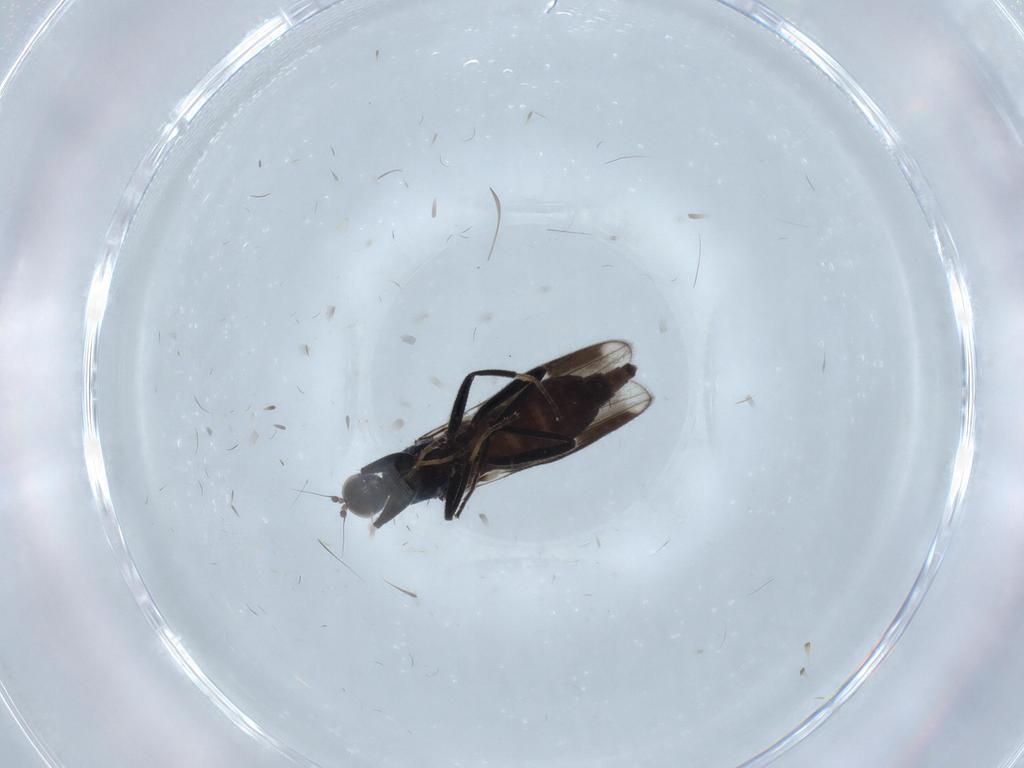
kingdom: Animalia
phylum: Arthropoda
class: Insecta
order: Diptera
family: Hybotidae
